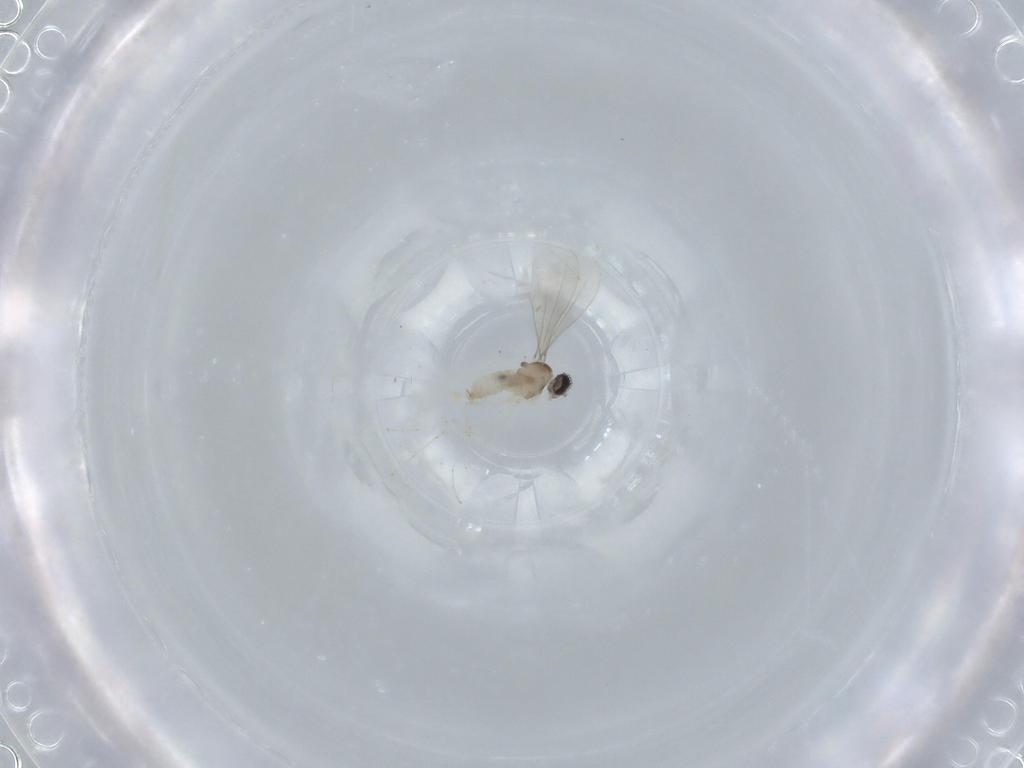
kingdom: Animalia
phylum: Arthropoda
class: Insecta
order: Diptera
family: Cecidomyiidae
